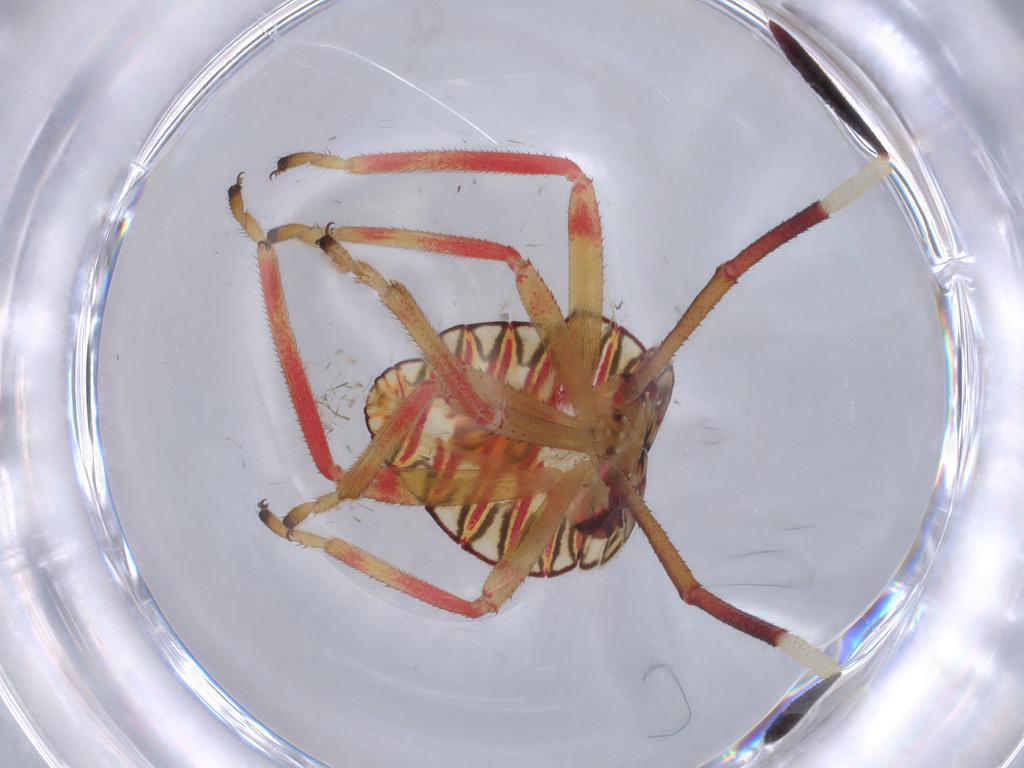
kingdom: Animalia
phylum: Arthropoda
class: Insecta
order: Hemiptera
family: Coreidae
